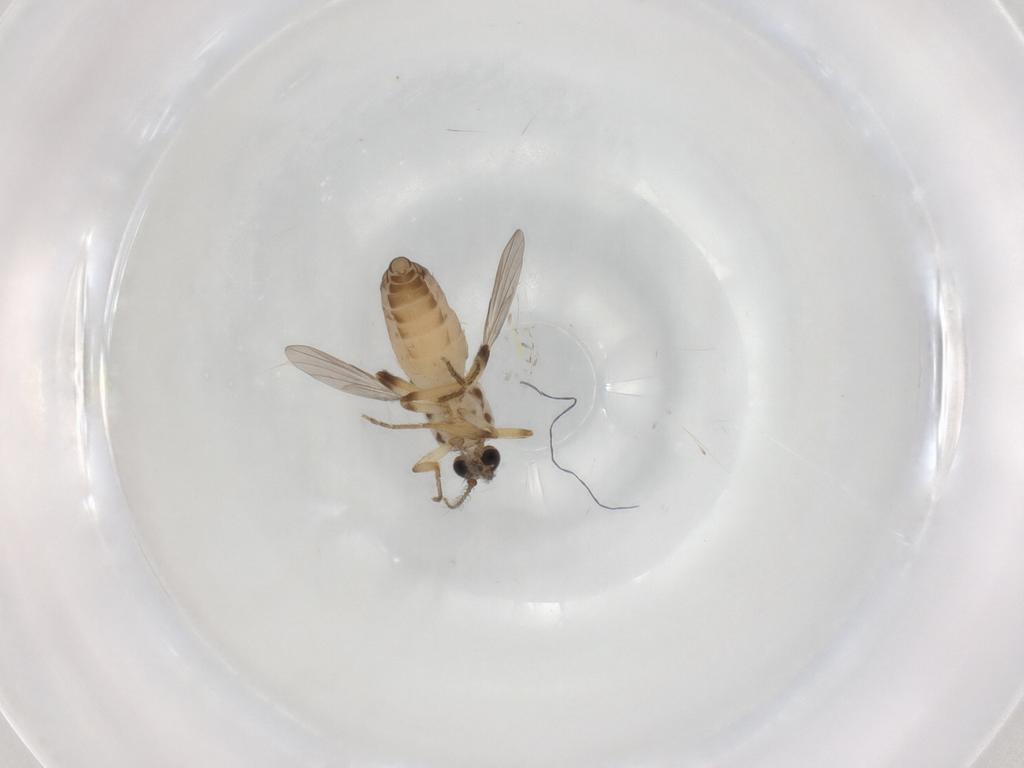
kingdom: Animalia
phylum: Arthropoda
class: Insecta
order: Diptera
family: Ceratopogonidae
